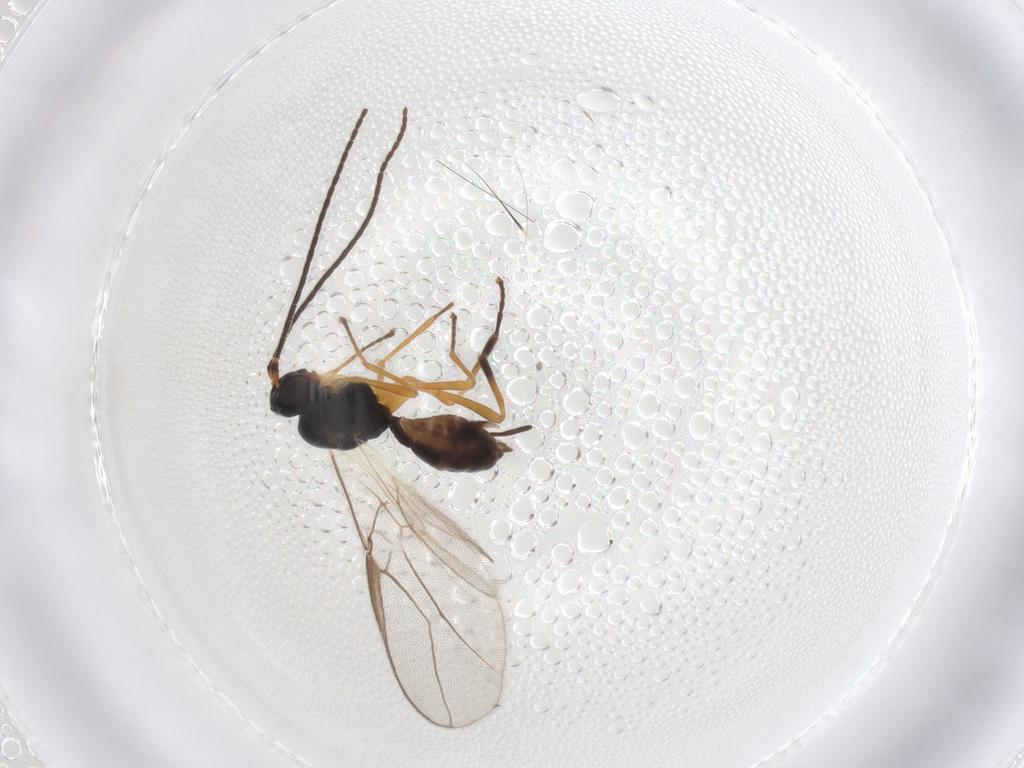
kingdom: Animalia
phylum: Arthropoda
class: Insecta
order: Hymenoptera
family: Braconidae
